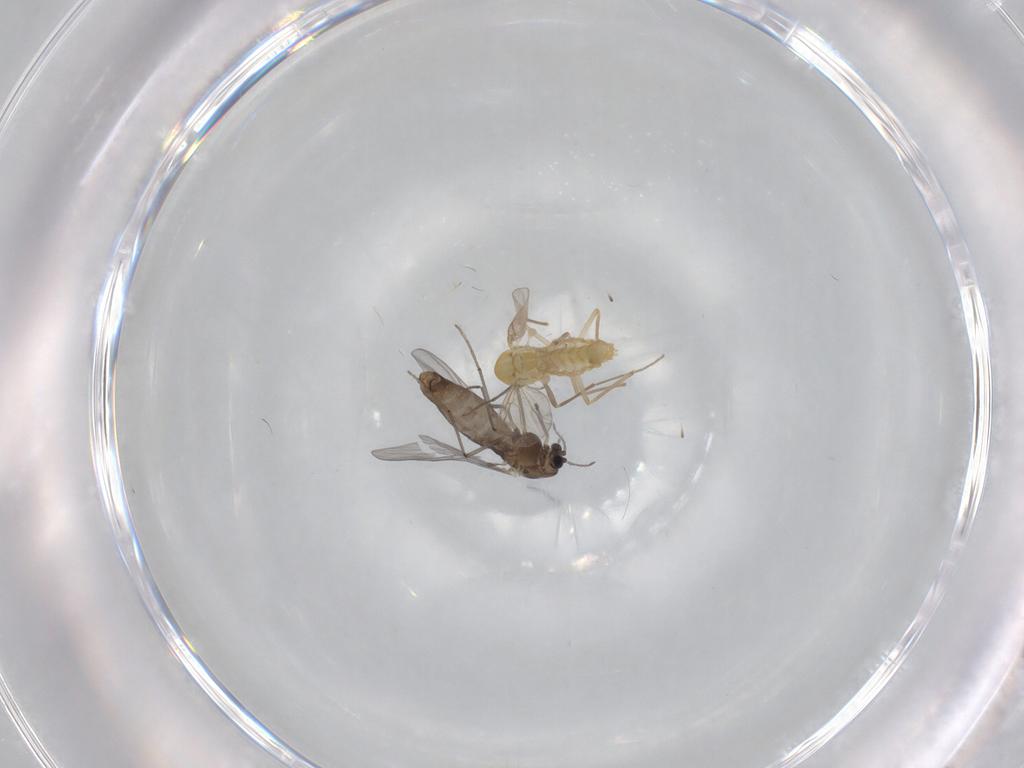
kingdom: Animalia
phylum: Arthropoda
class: Insecta
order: Diptera
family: Chironomidae
